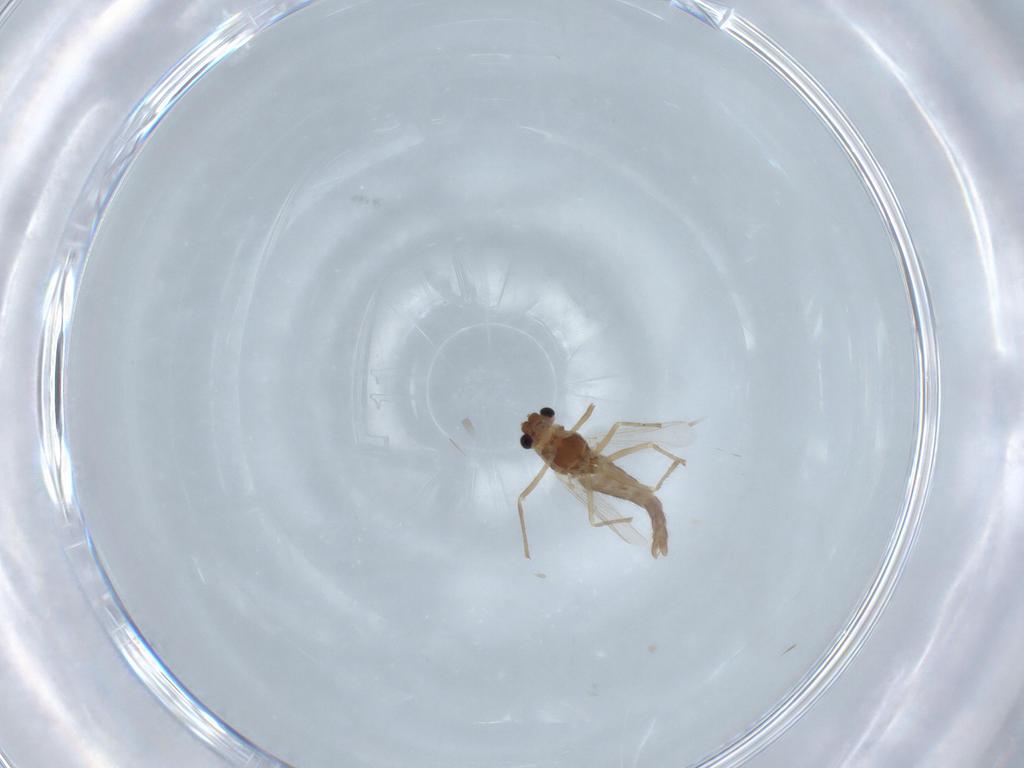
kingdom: Animalia
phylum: Arthropoda
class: Insecta
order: Diptera
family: Chironomidae
